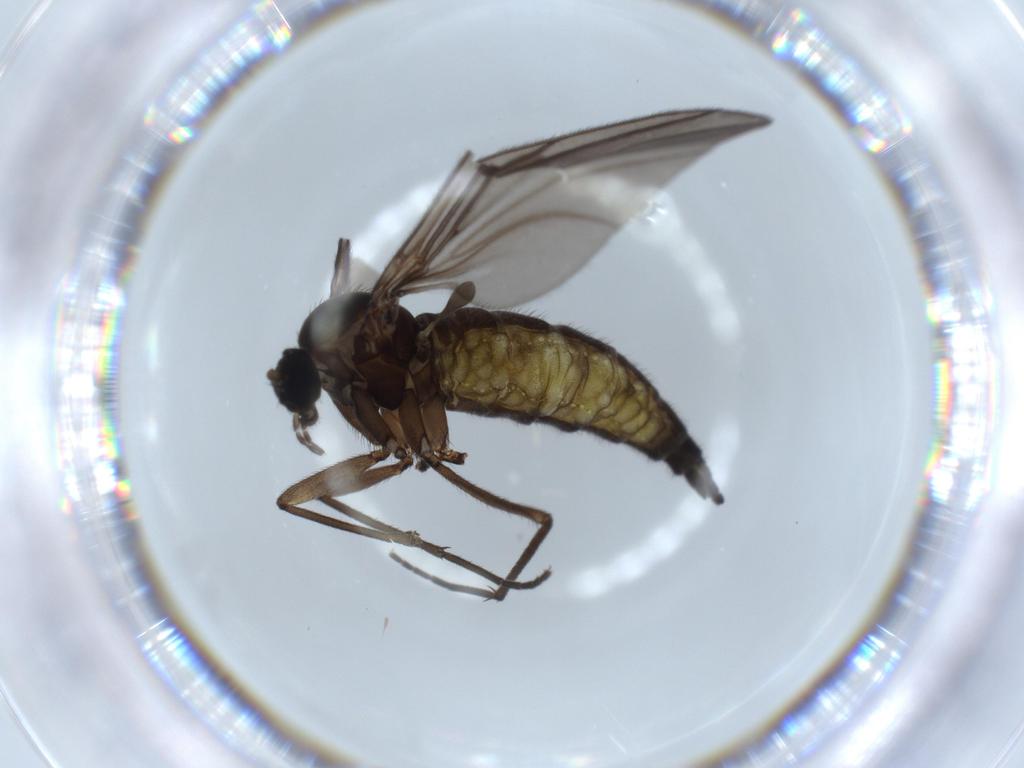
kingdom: Animalia
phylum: Arthropoda
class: Insecta
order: Diptera
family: Sciaridae
